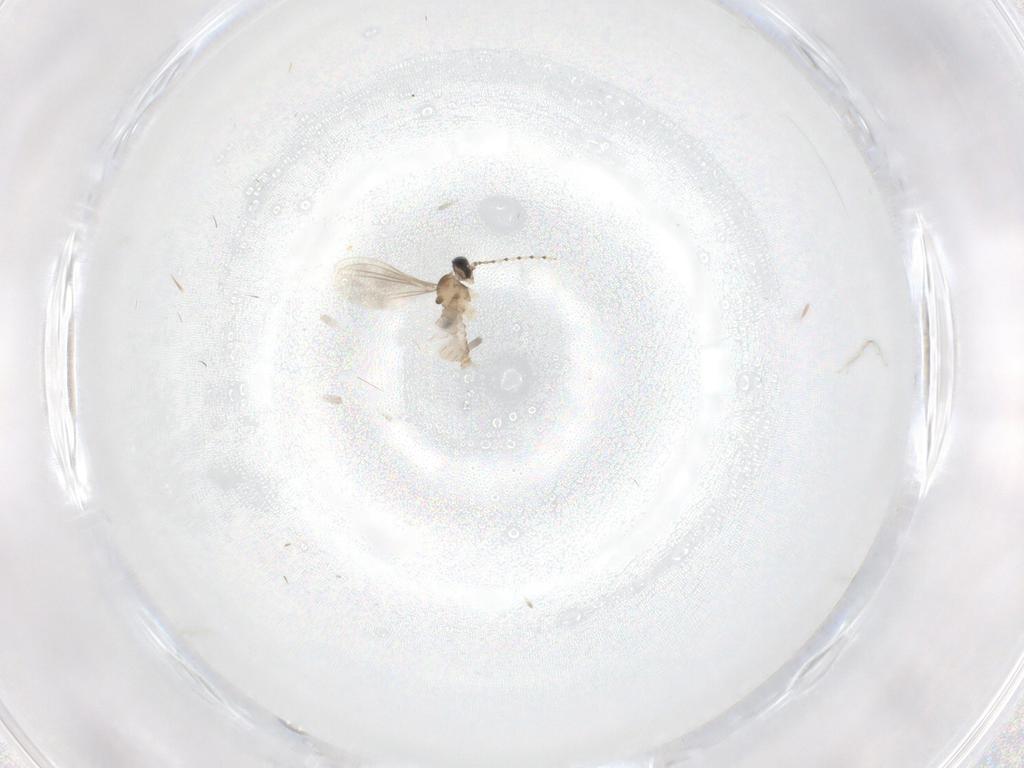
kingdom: Animalia
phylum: Arthropoda
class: Insecta
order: Diptera
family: Cecidomyiidae
